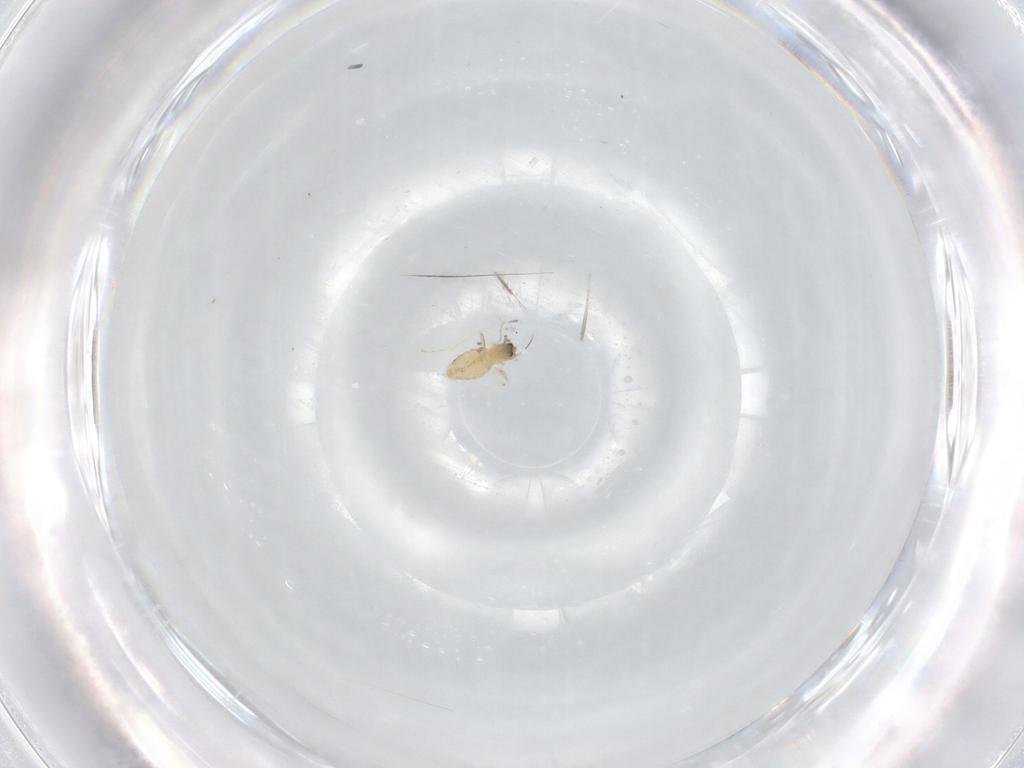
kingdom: Animalia
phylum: Arthropoda
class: Insecta
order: Diptera
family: Cecidomyiidae
